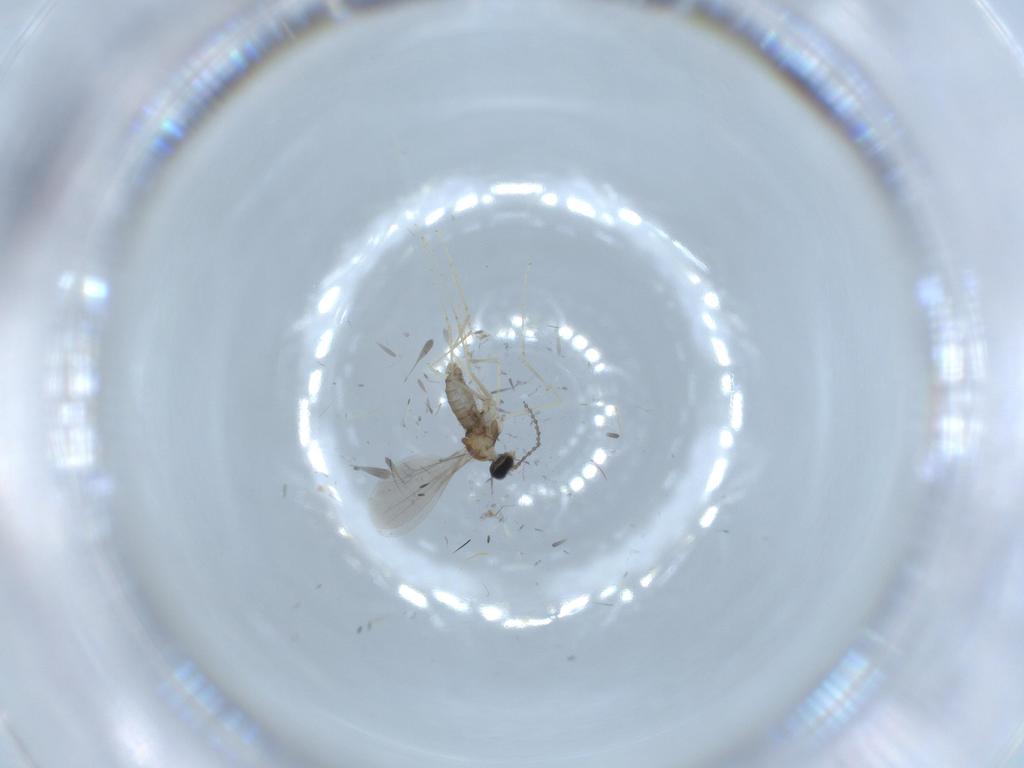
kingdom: Animalia
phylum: Arthropoda
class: Insecta
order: Diptera
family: Cecidomyiidae
